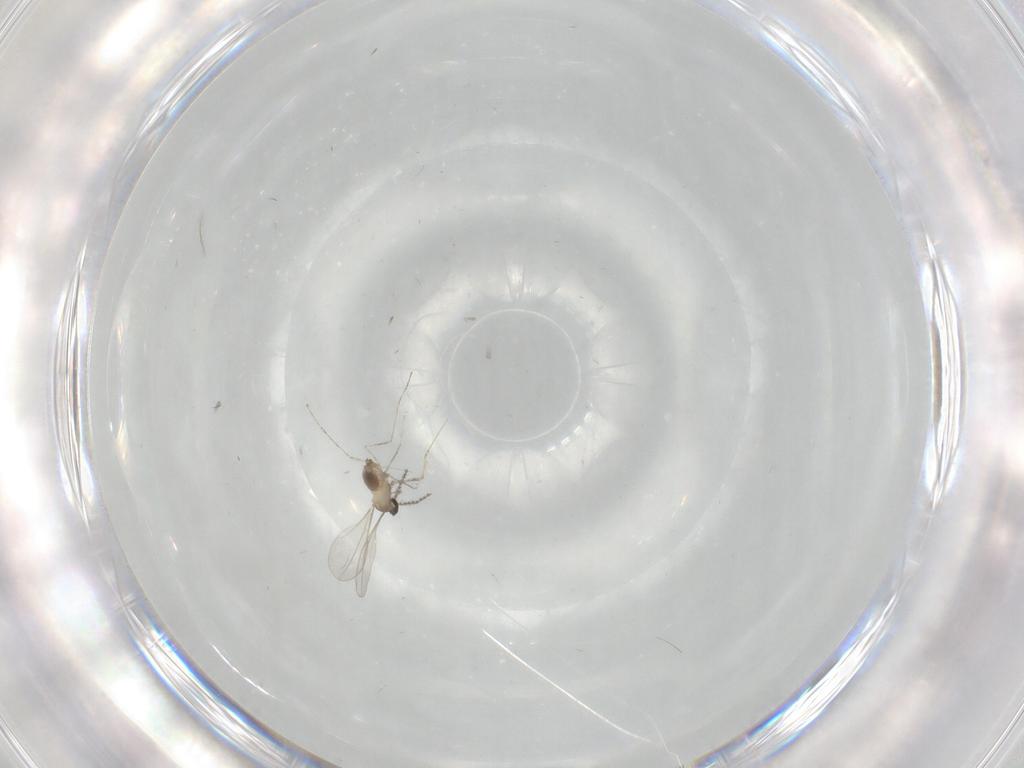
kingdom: Animalia
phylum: Arthropoda
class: Insecta
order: Diptera
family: Cecidomyiidae
